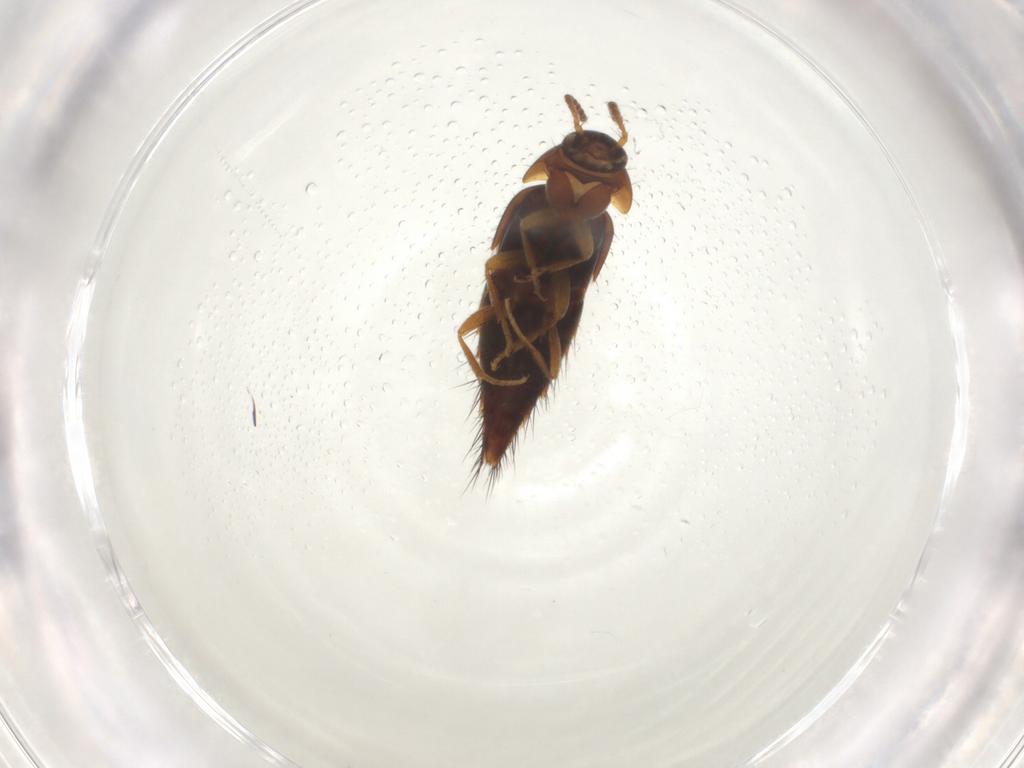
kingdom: Animalia
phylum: Arthropoda
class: Insecta
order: Coleoptera
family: Staphylinidae
